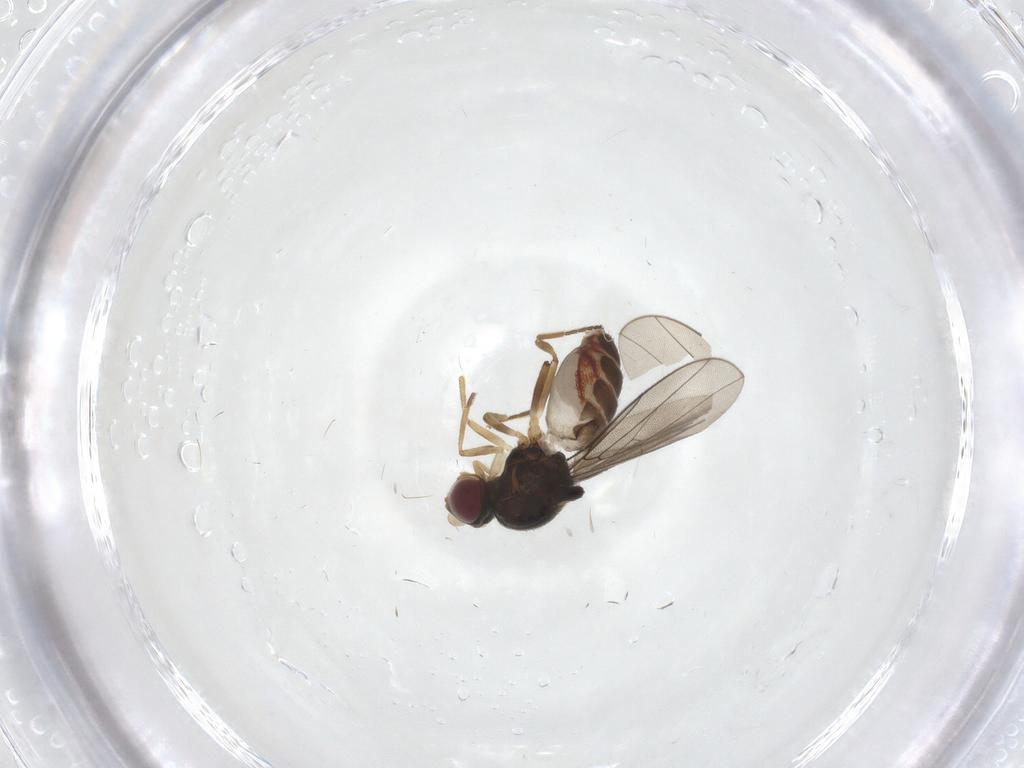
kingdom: Animalia
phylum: Arthropoda
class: Insecta
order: Diptera
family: Chloropidae
